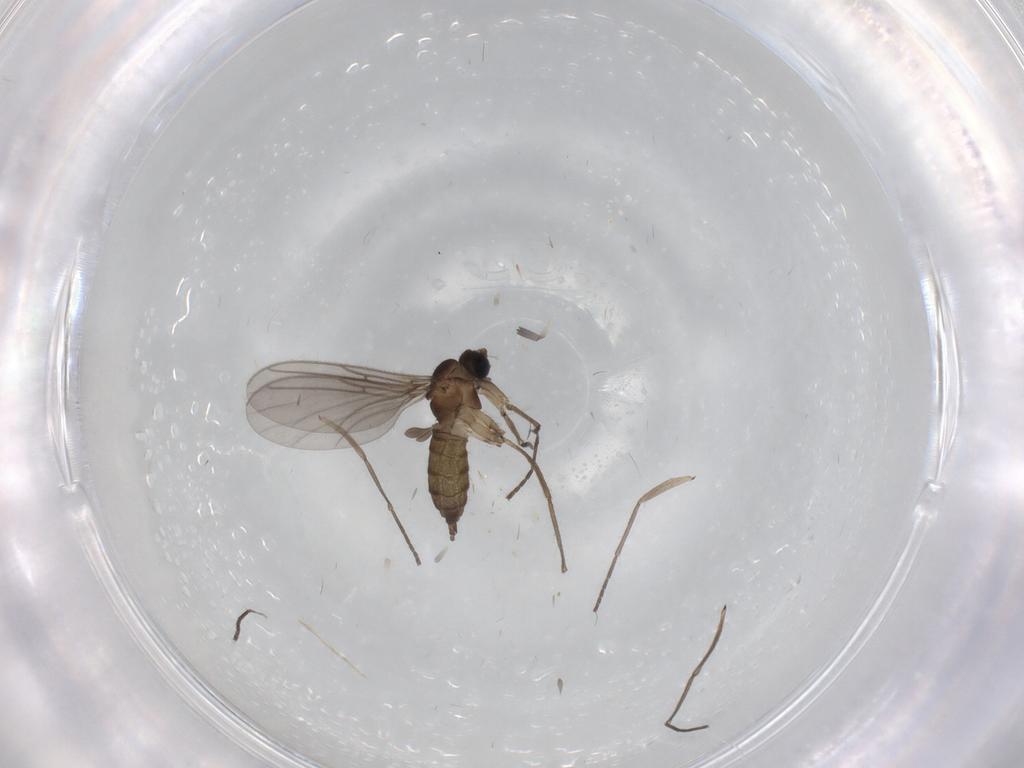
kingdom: Animalia
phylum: Arthropoda
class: Insecta
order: Diptera
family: Sciaridae
